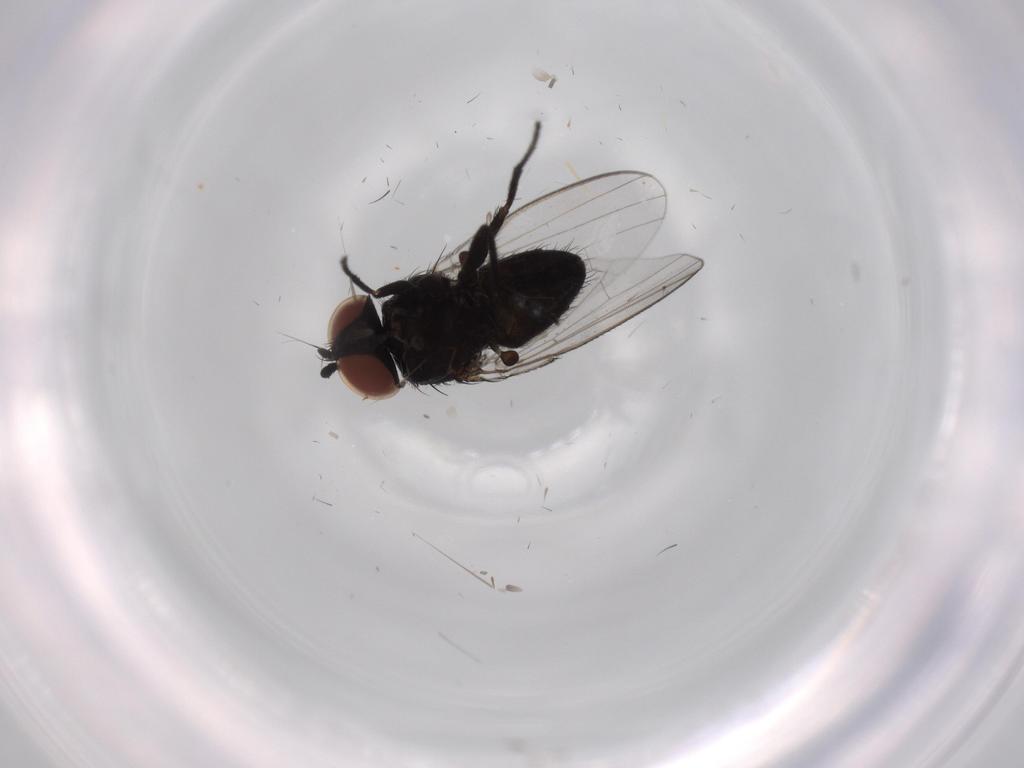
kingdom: Animalia
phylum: Arthropoda
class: Insecta
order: Diptera
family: Milichiidae
